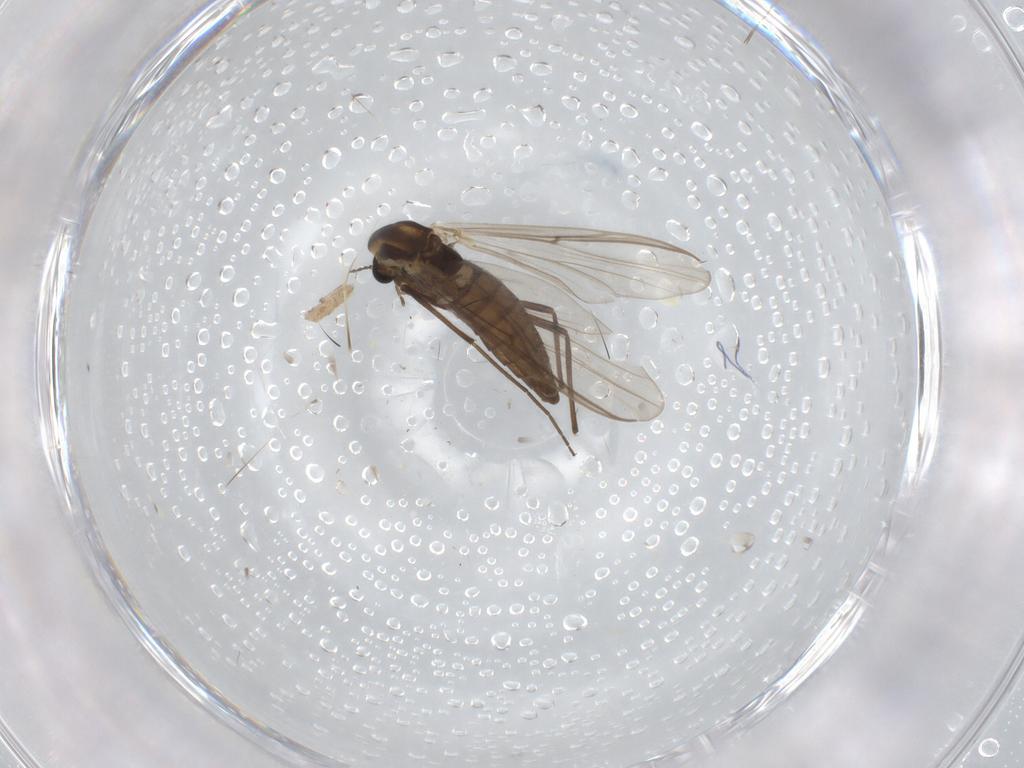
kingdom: Animalia
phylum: Arthropoda
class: Insecta
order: Diptera
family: Chironomidae
